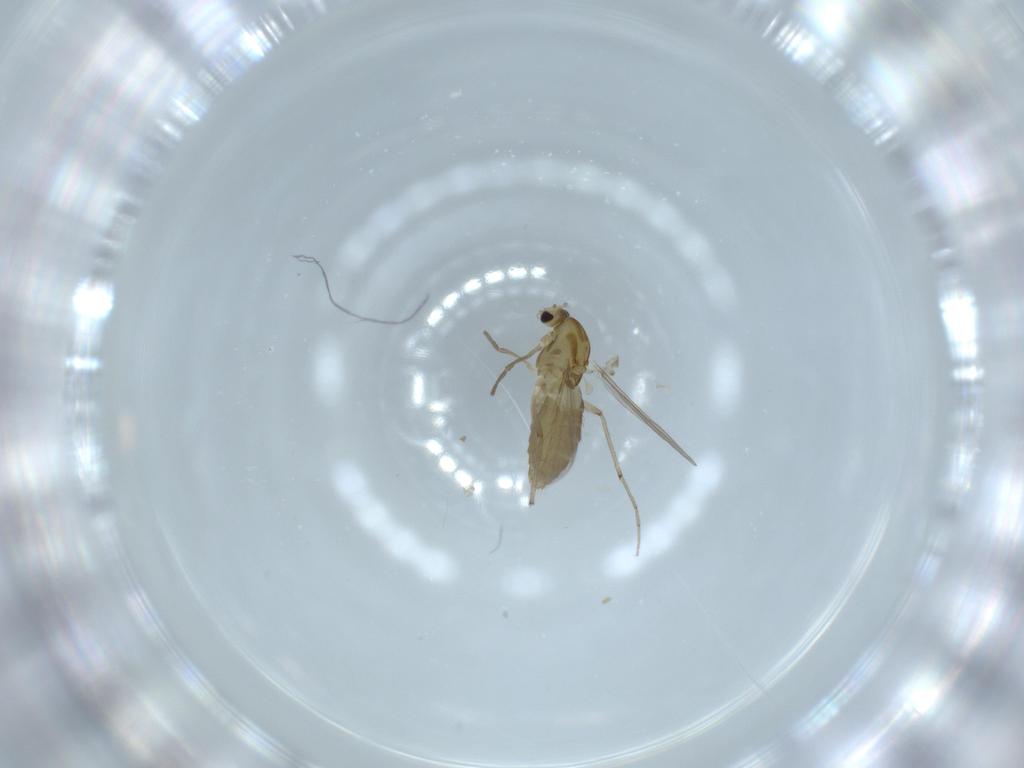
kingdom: Animalia
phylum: Arthropoda
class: Insecta
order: Diptera
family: Chironomidae
